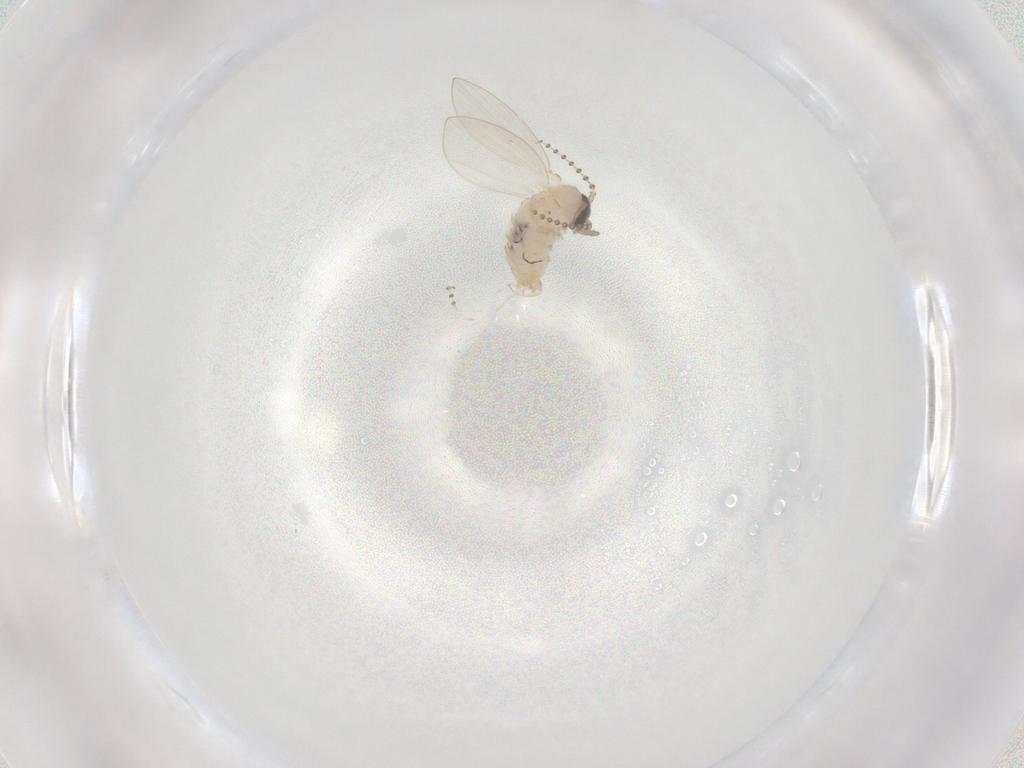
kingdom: Animalia
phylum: Arthropoda
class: Insecta
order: Diptera
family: Psychodidae
